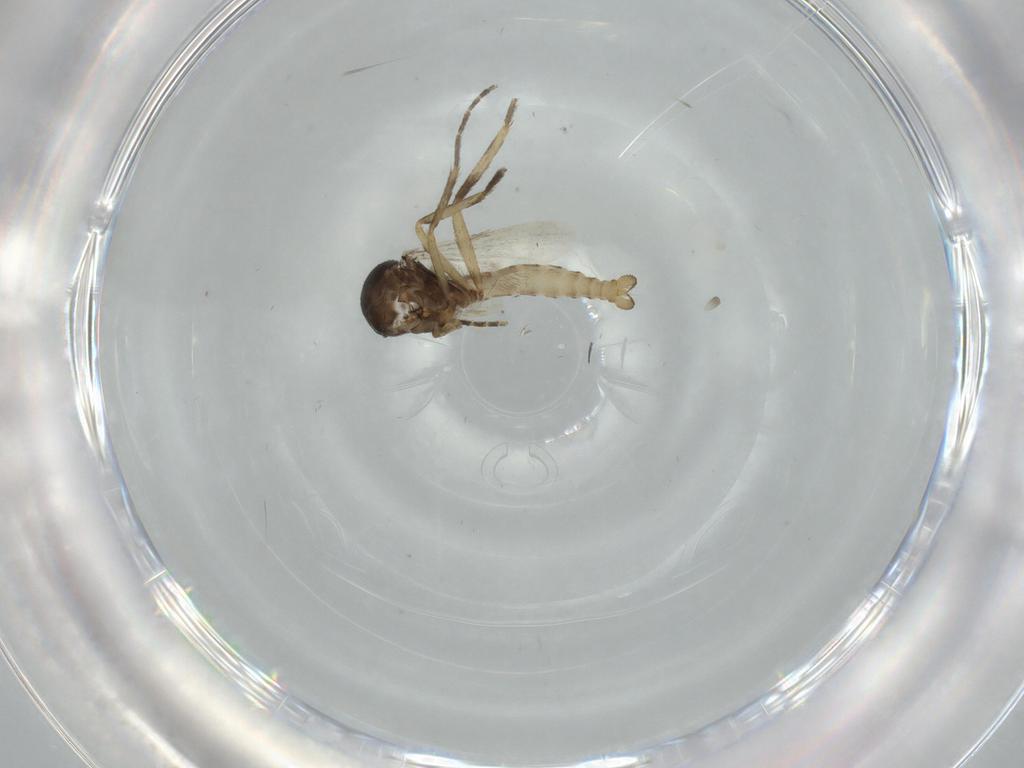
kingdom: Animalia
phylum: Arthropoda
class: Insecta
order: Diptera
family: Ceratopogonidae
